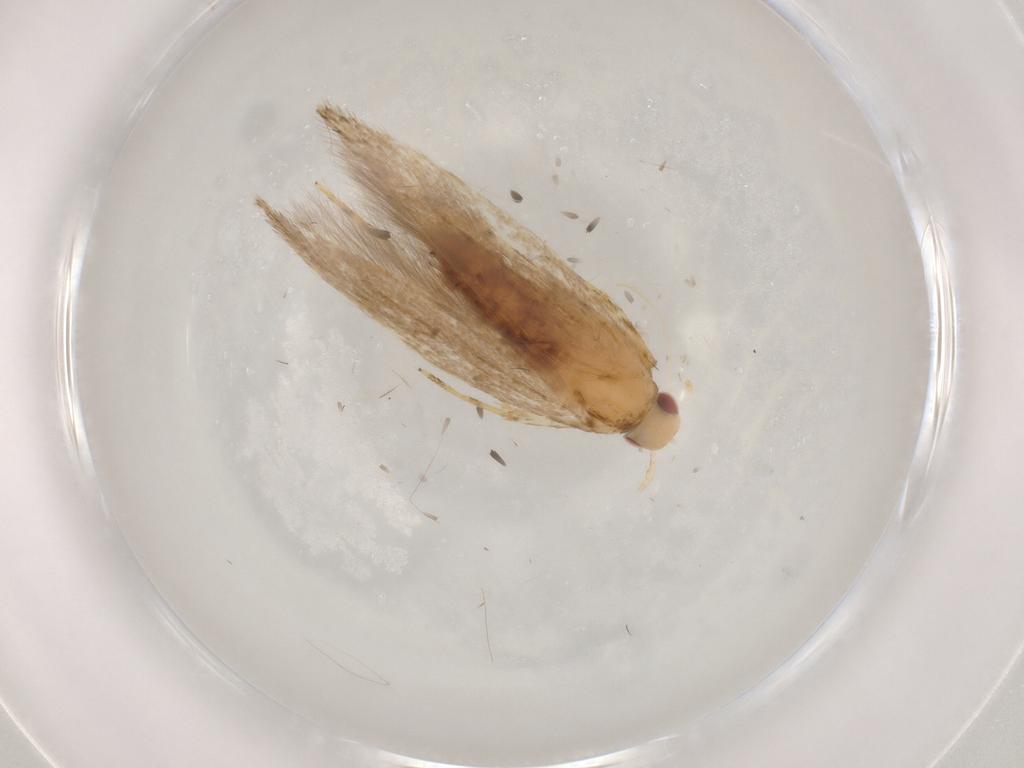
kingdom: Animalia
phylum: Arthropoda
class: Insecta
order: Lepidoptera
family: Cosmopterigidae
